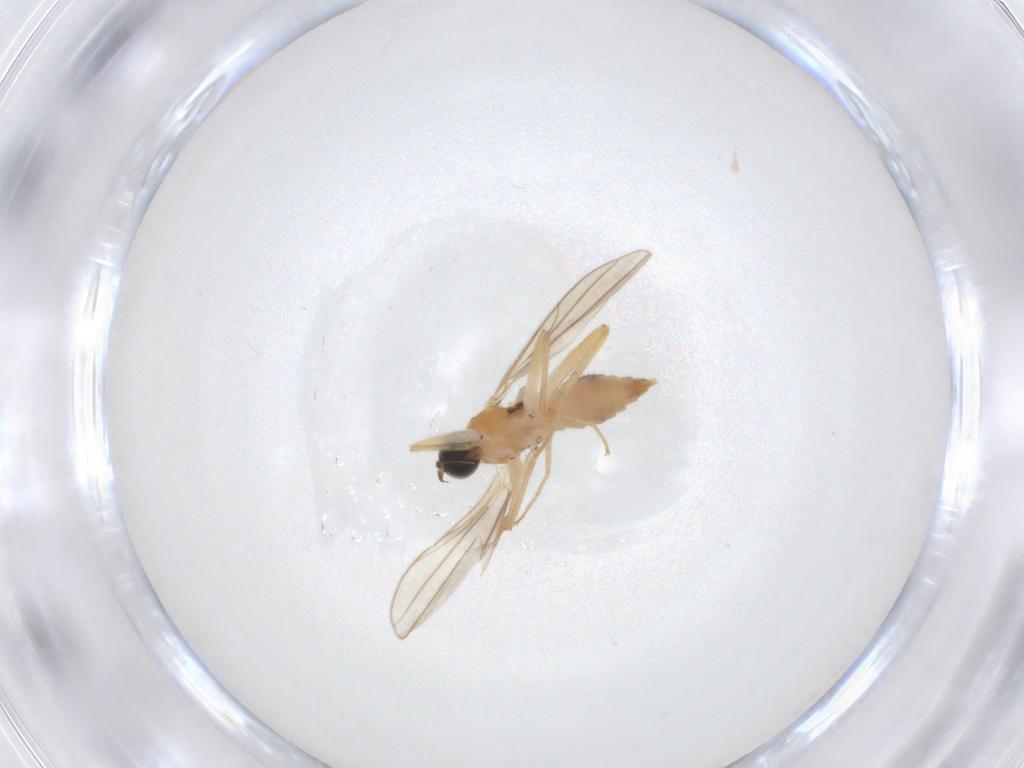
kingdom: Animalia
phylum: Arthropoda
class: Insecta
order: Diptera
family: Hybotidae
